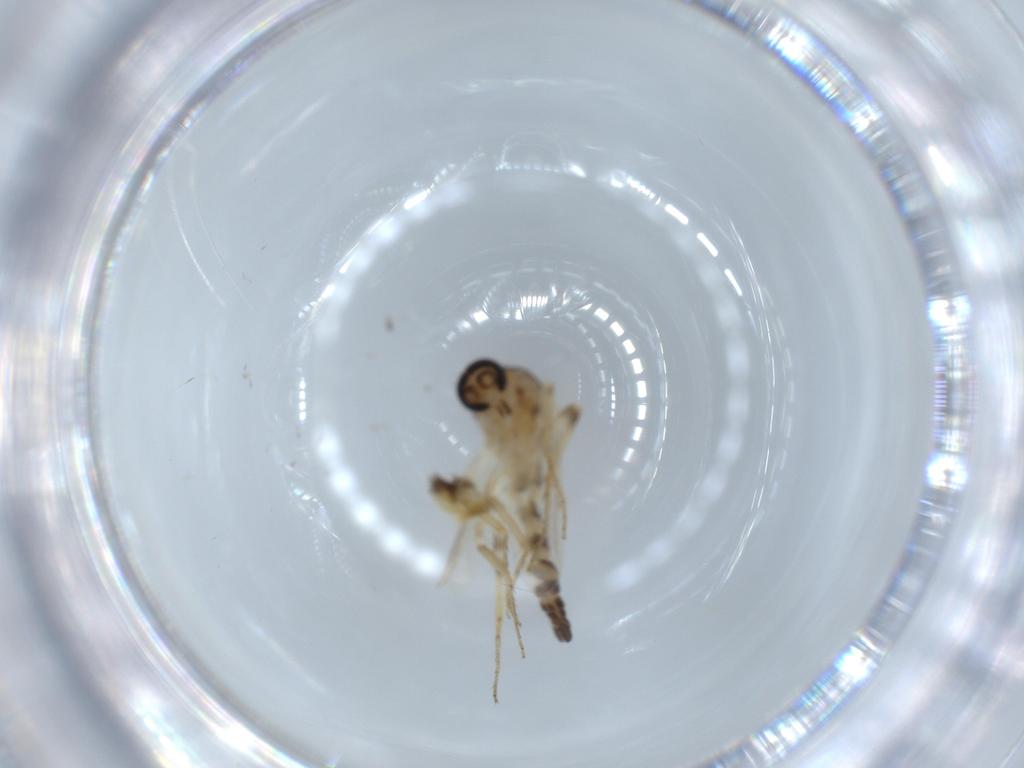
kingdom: Animalia
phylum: Arthropoda
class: Insecta
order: Diptera
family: Ceratopogonidae
